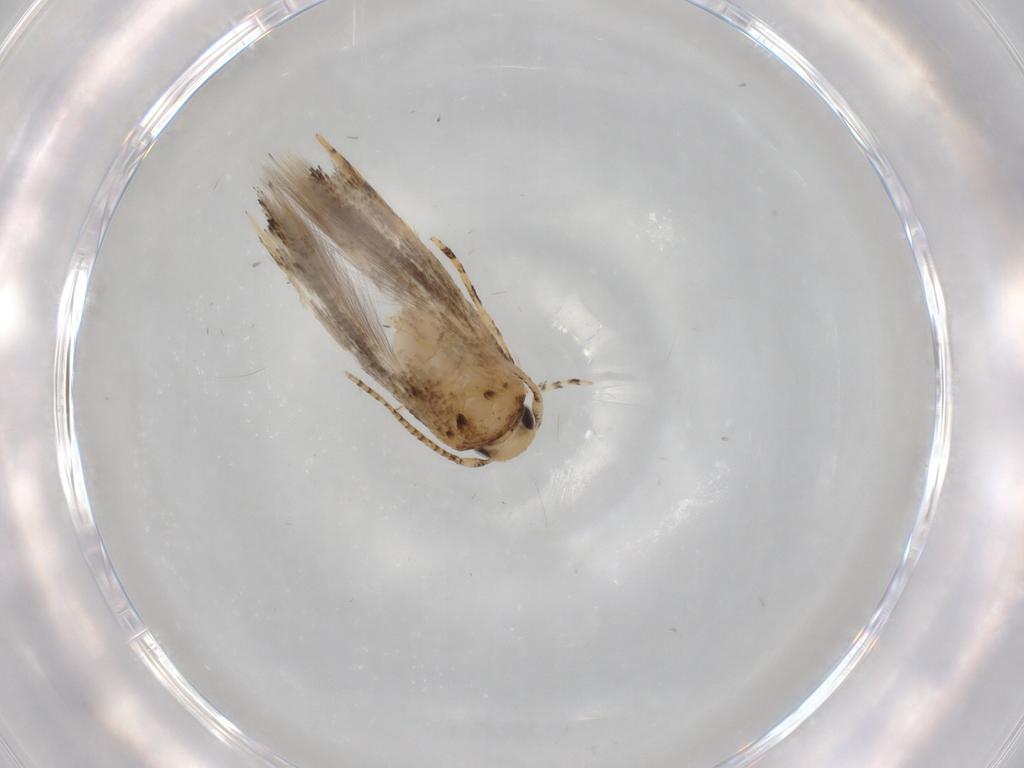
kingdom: Animalia
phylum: Arthropoda
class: Insecta
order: Lepidoptera
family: Gelechiidae
